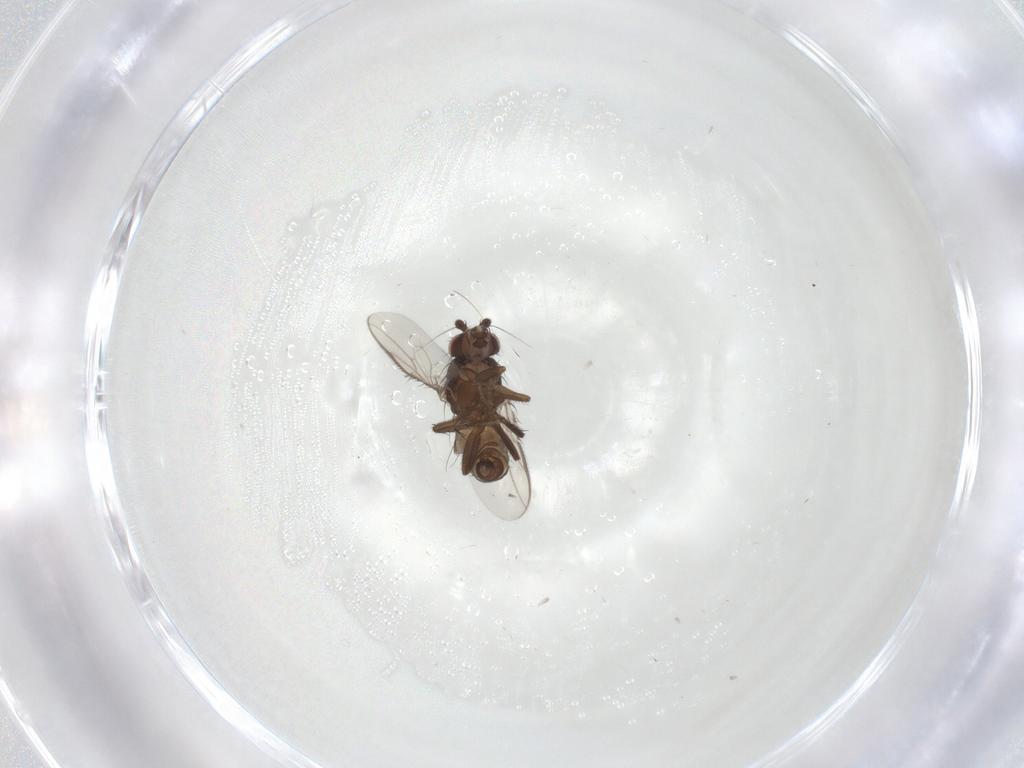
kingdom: Animalia
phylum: Arthropoda
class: Insecta
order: Diptera
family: Sphaeroceridae
